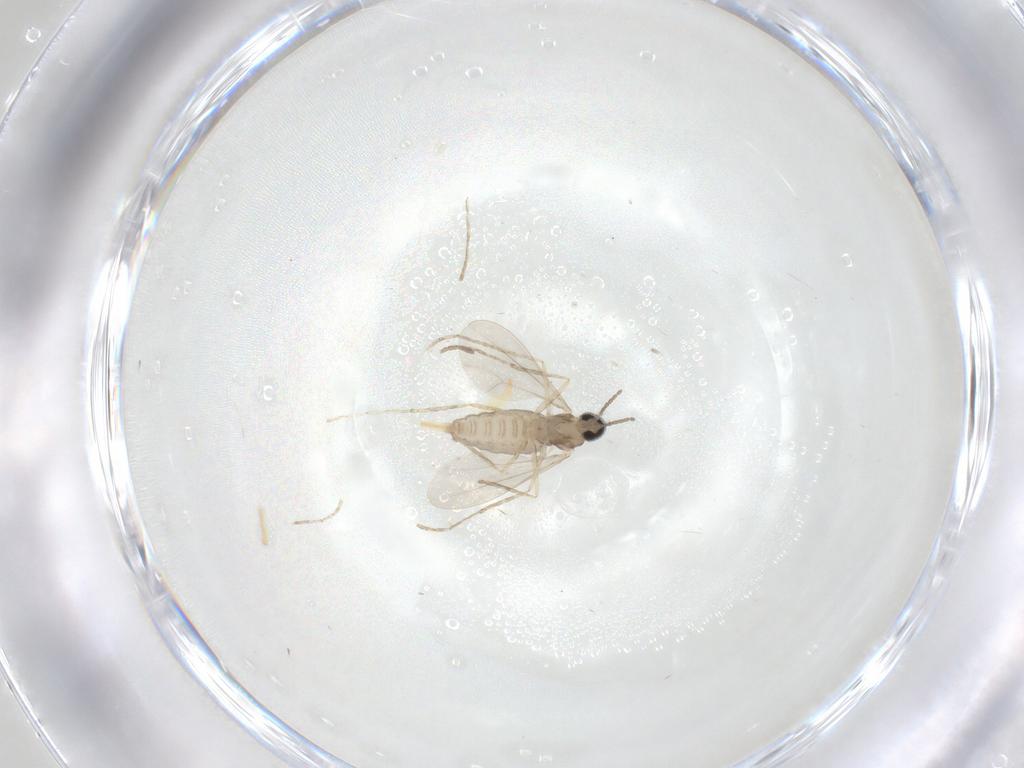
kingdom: Animalia
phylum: Arthropoda
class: Insecta
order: Diptera
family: Cecidomyiidae
